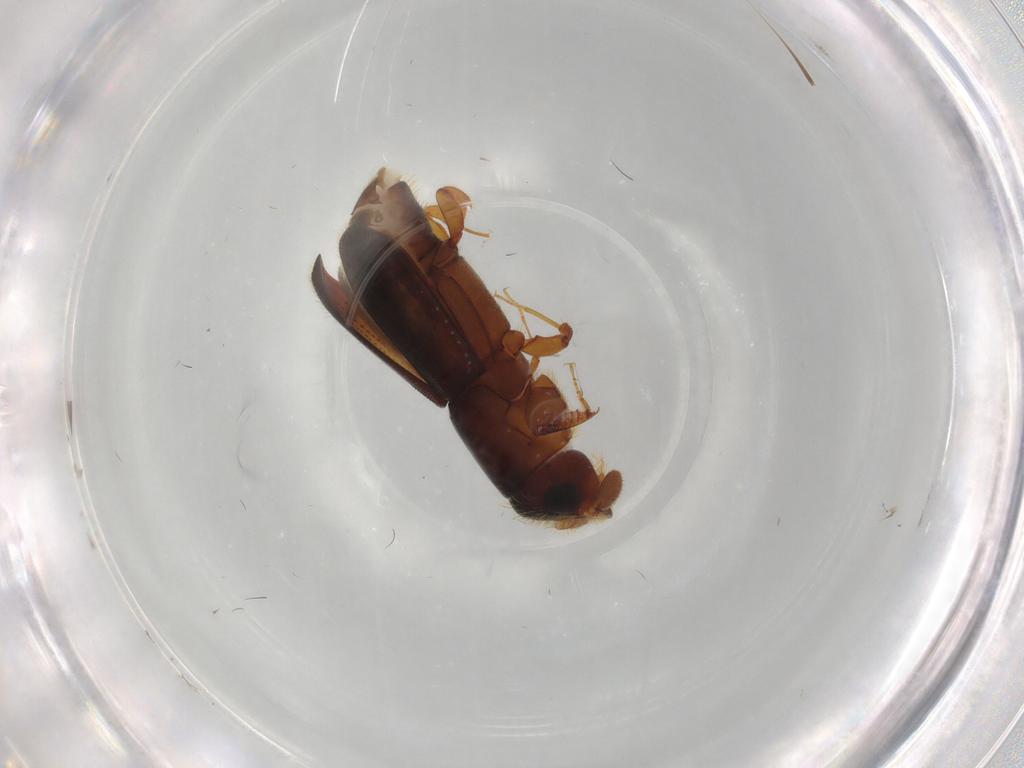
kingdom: Animalia
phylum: Arthropoda
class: Insecta
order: Coleoptera
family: Curculionidae
